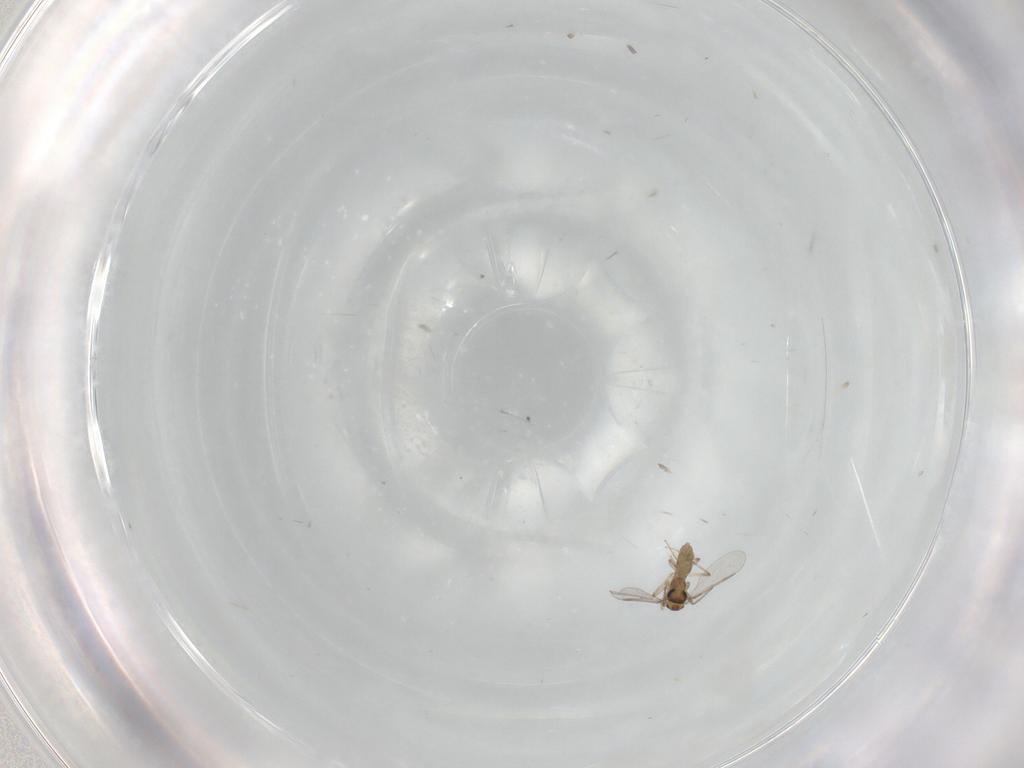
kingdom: Animalia
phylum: Arthropoda
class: Insecta
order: Diptera
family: Chironomidae
